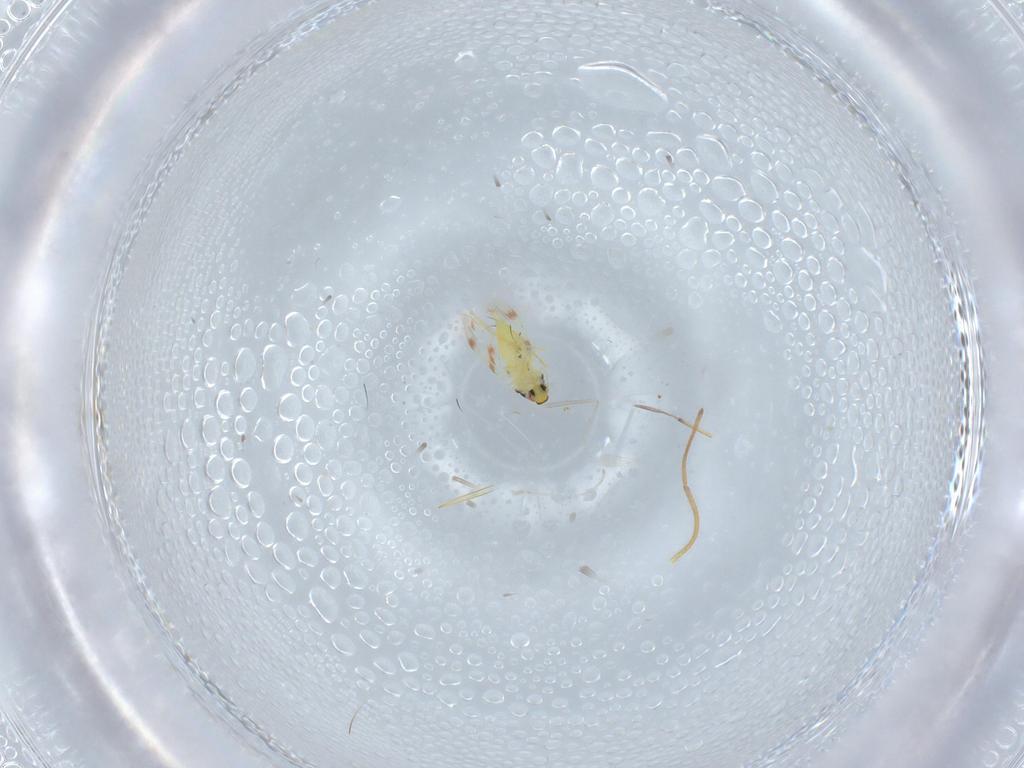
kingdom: Animalia
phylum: Arthropoda
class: Insecta
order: Hemiptera
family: Aleyrodidae
